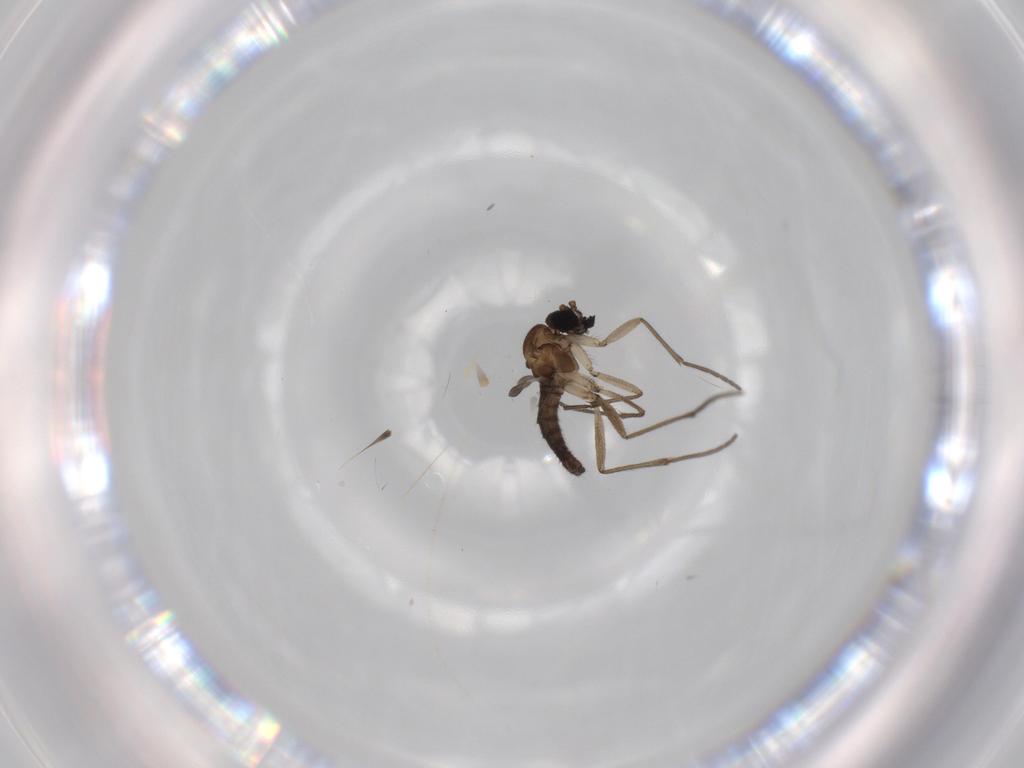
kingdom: Animalia
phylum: Arthropoda
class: Insecta
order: Diptera
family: Sciaridae
